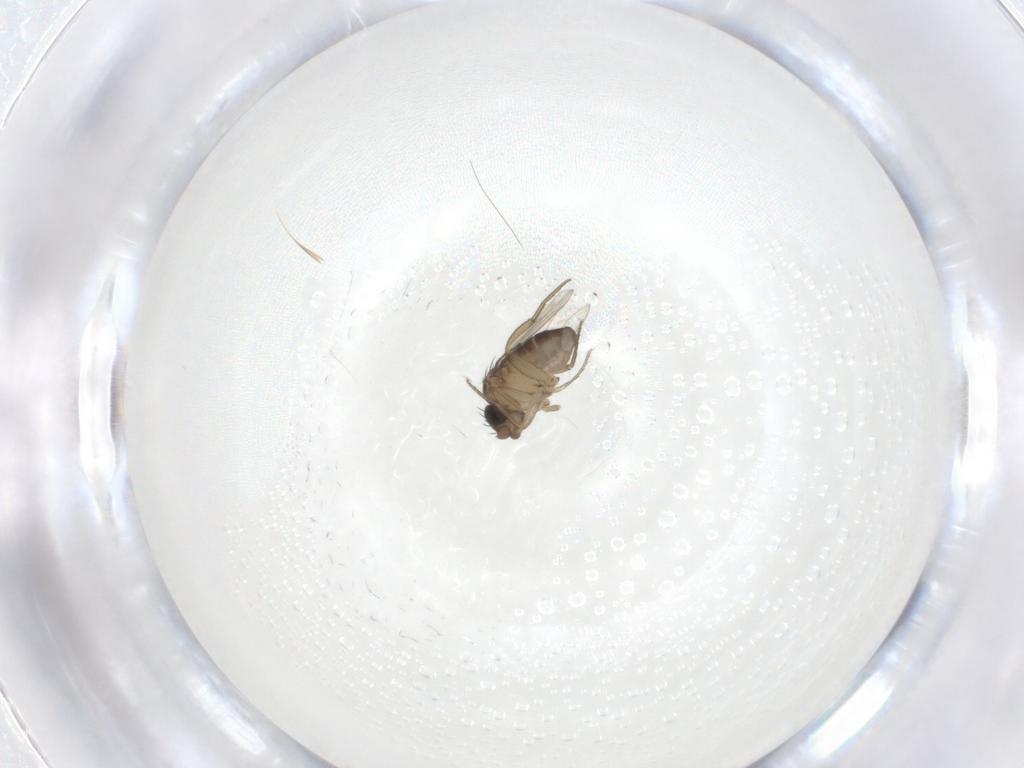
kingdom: Animalia
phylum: Arthropoda
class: Insecta
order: Diptera
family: Phoridae
